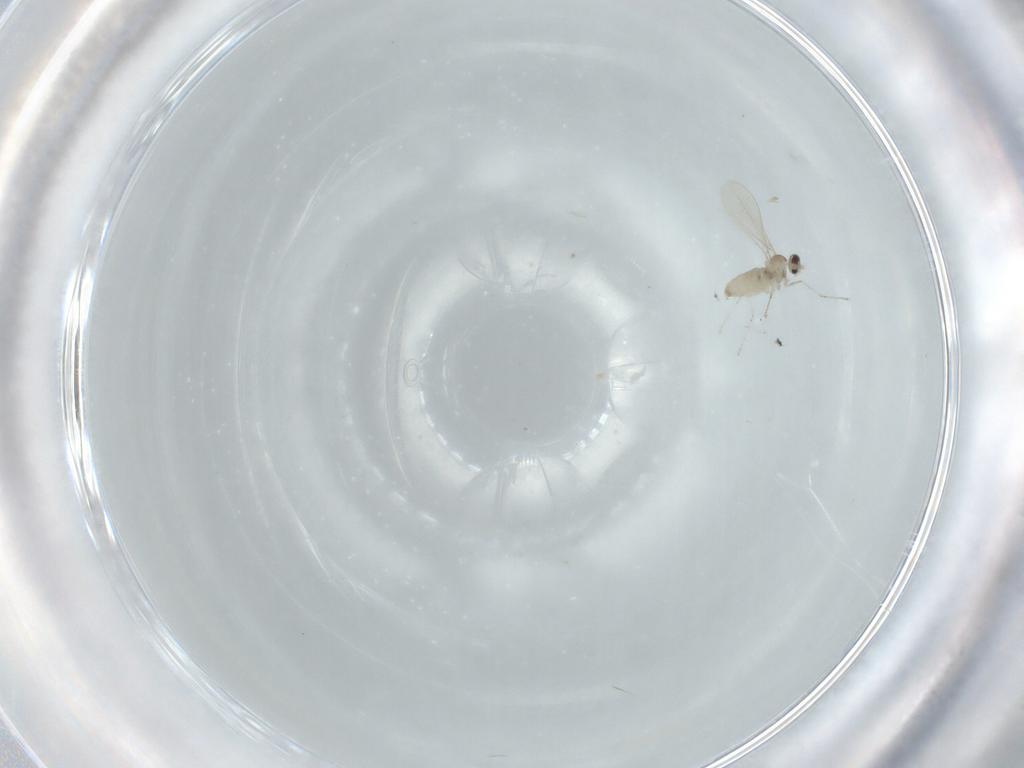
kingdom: Animalia
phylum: Arthropoda
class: Insecta
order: Diptera
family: Cecidomyiidae
